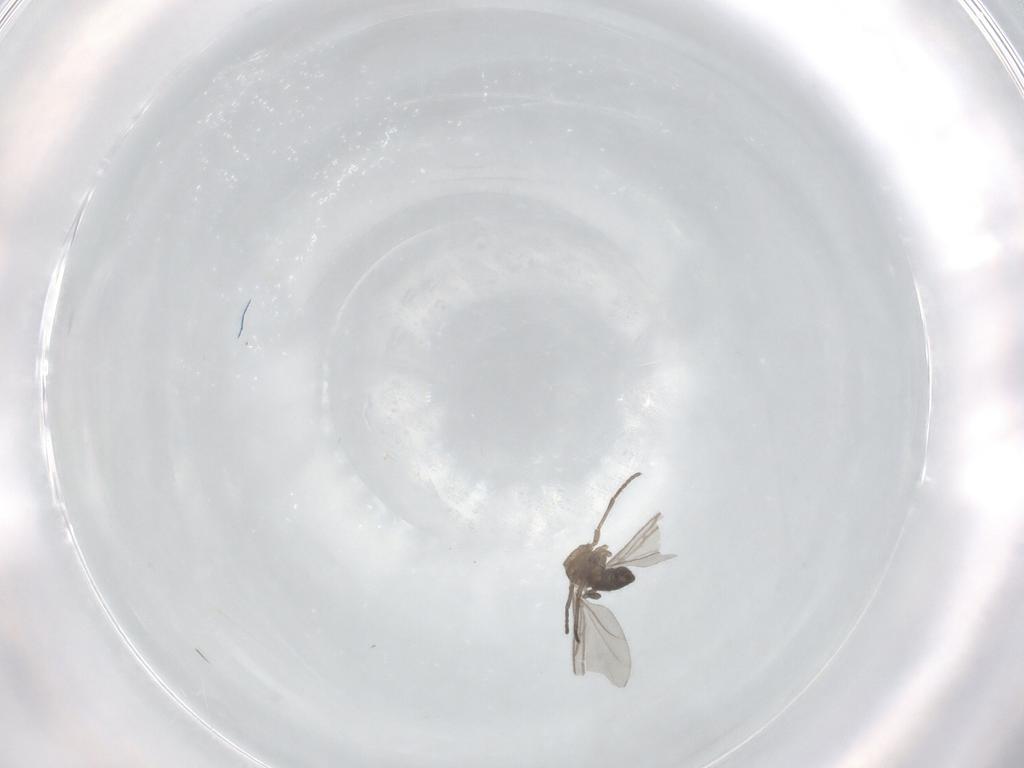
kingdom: Animalia
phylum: Arthropoda
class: Insecta
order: Diptera
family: Sciaridae
